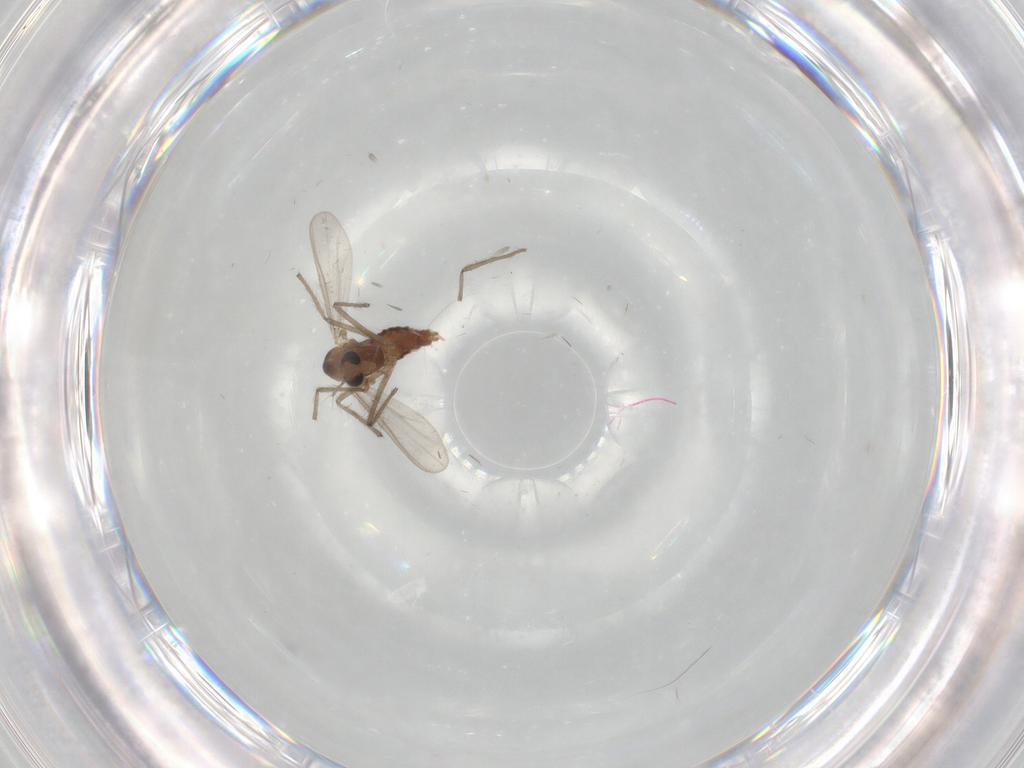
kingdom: Animalia
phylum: Arthropoda
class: Insecta
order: Diptera
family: Chironomidae
